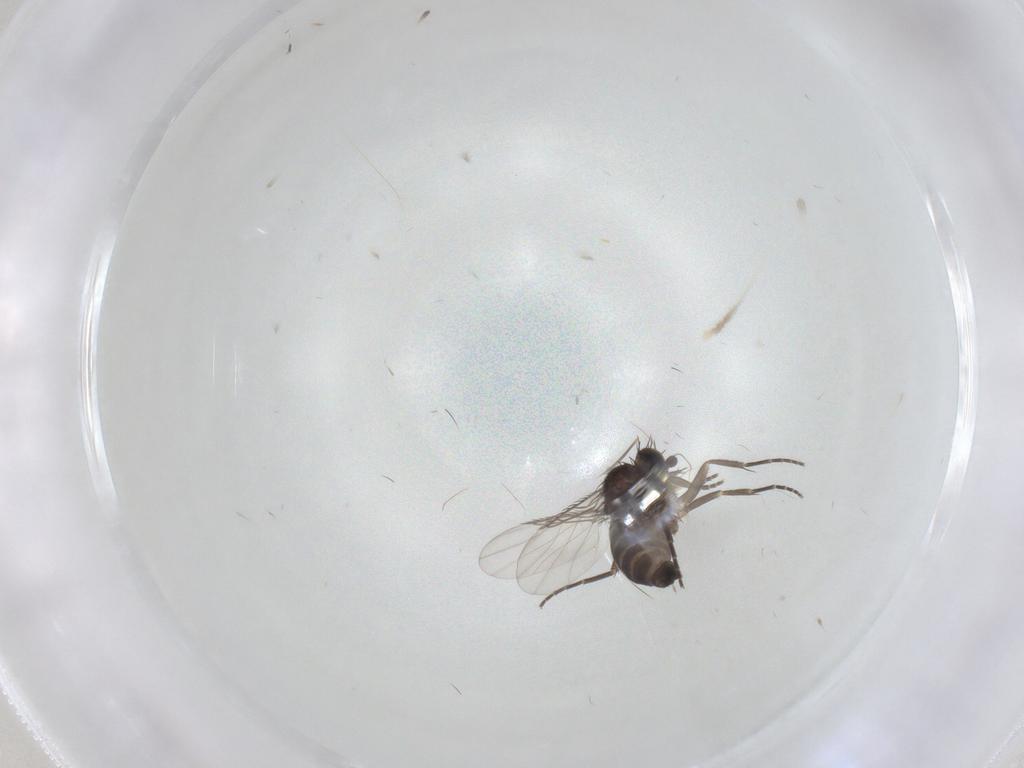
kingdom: Animalia
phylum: Arthropoda
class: Insecta
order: Diptera
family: Phoridae
